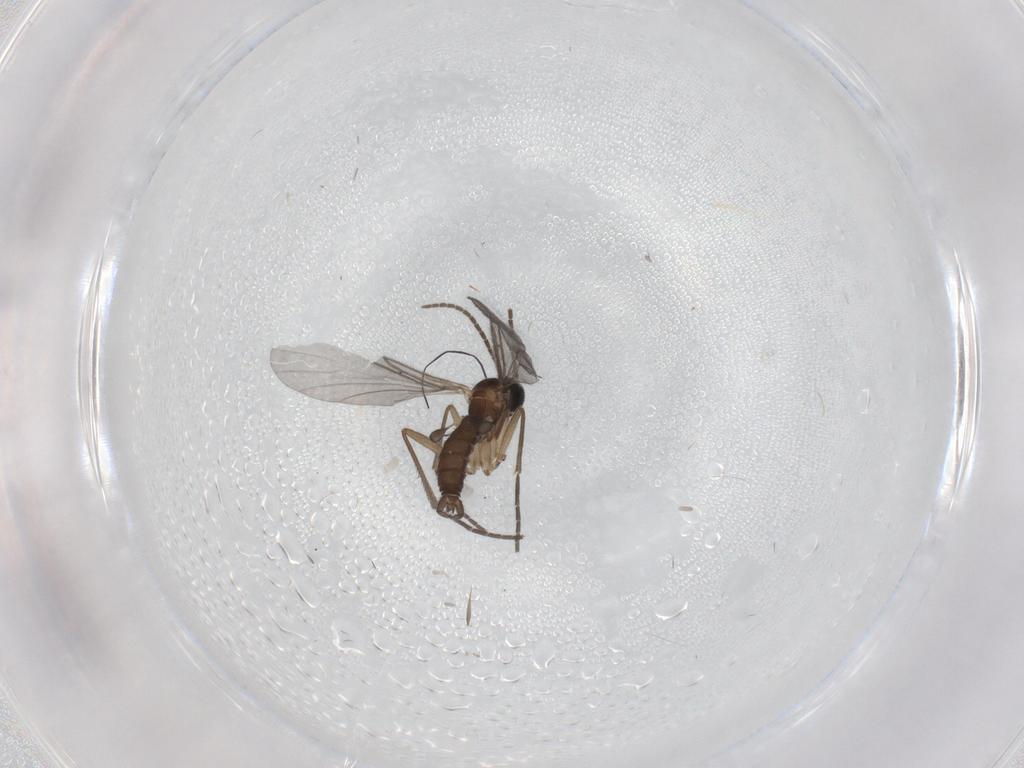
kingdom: Animalia
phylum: Arthropoda
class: Insecta
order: Diptera
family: Sciaridae
